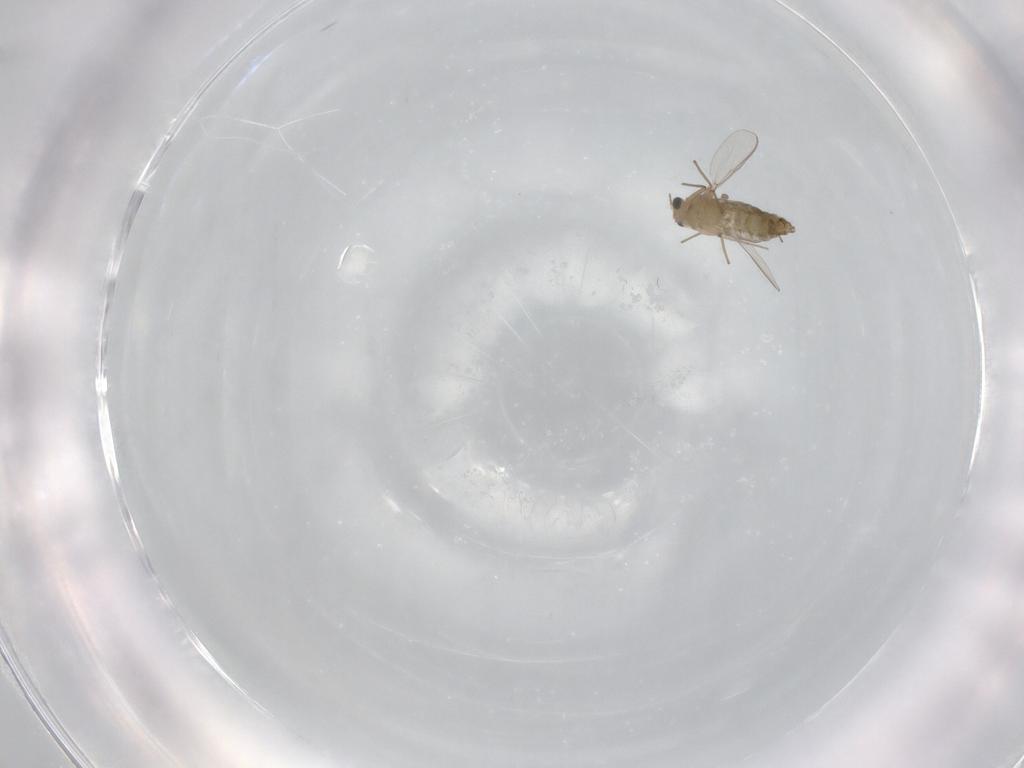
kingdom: Animalia
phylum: Arthropoda
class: Insecta
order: Diptera
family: Chironomidae
